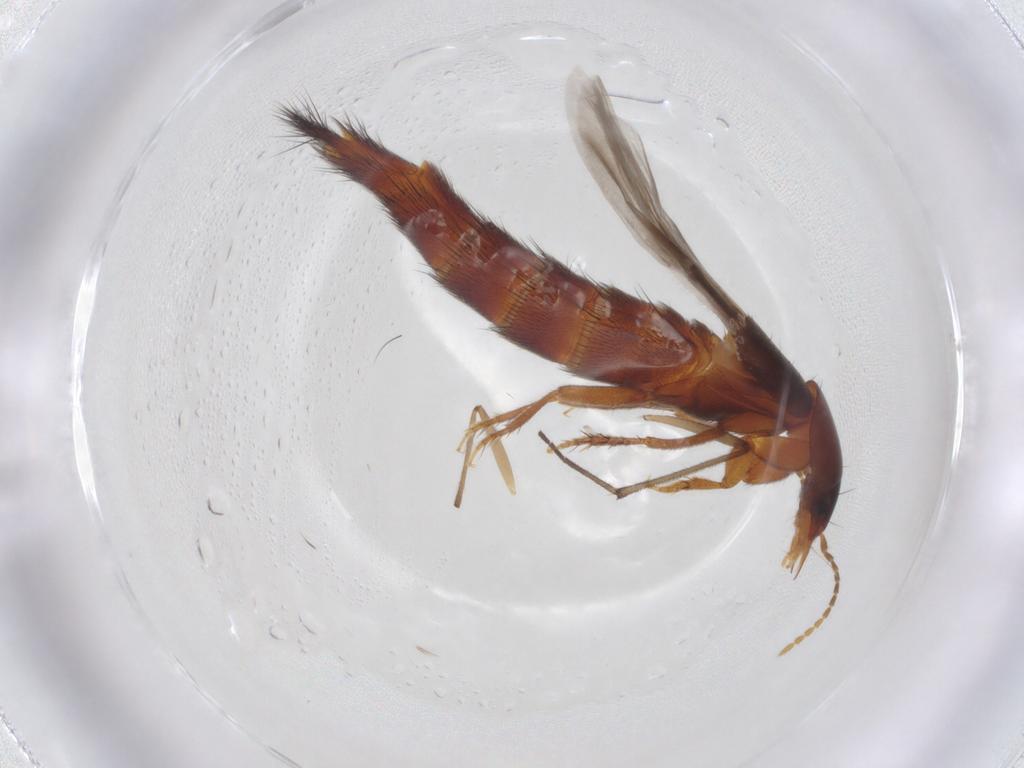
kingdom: Animalia
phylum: Arthropoda
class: Insecta
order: Coleoptera
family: Staphylinidae
